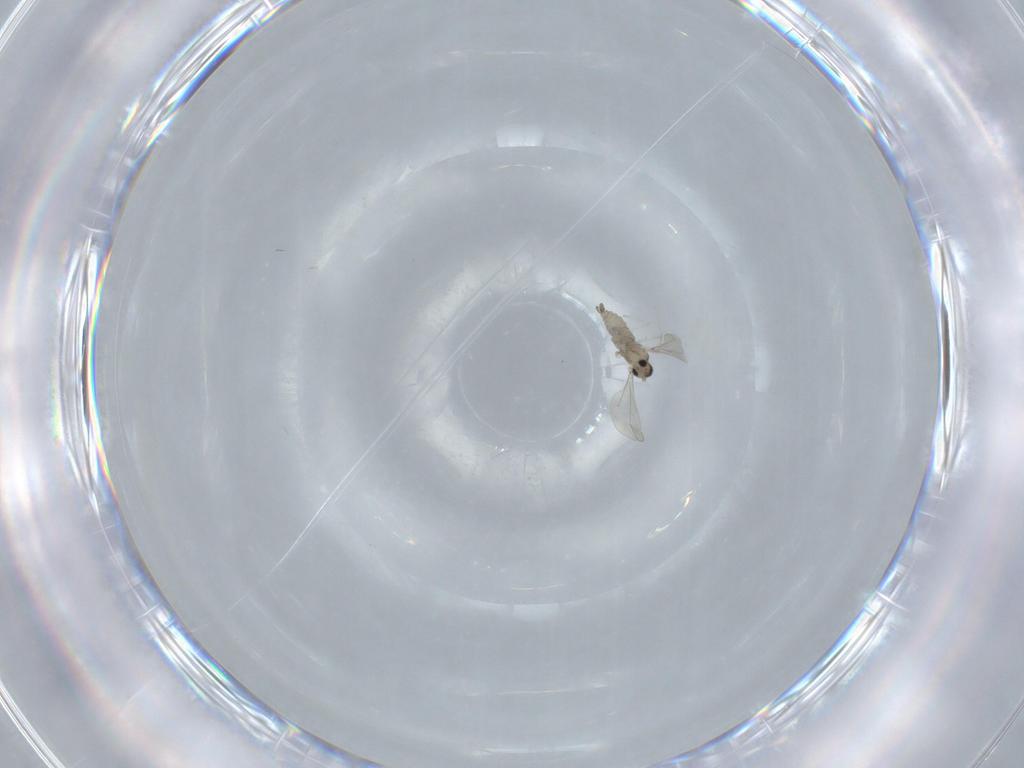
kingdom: Animalia
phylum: Arthropoda
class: Insecta
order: Diptera
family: Cecidomyiidae
